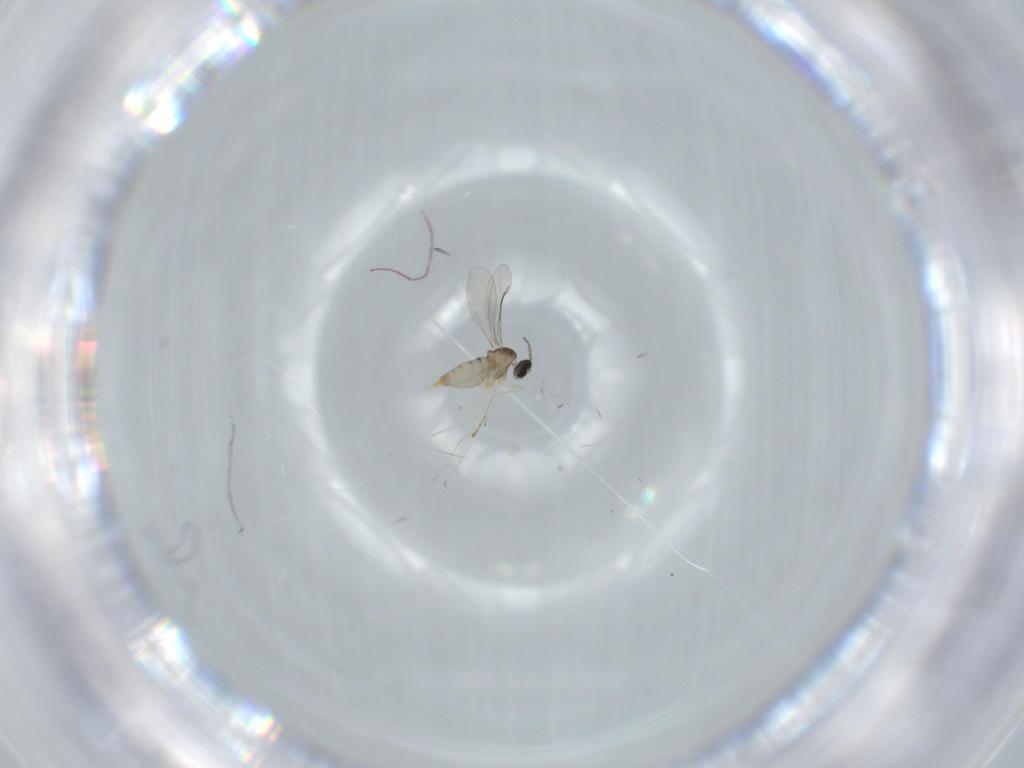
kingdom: Animalia
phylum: Arthropoda
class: Insecta
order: Diptera
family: Cecidomyiidae
